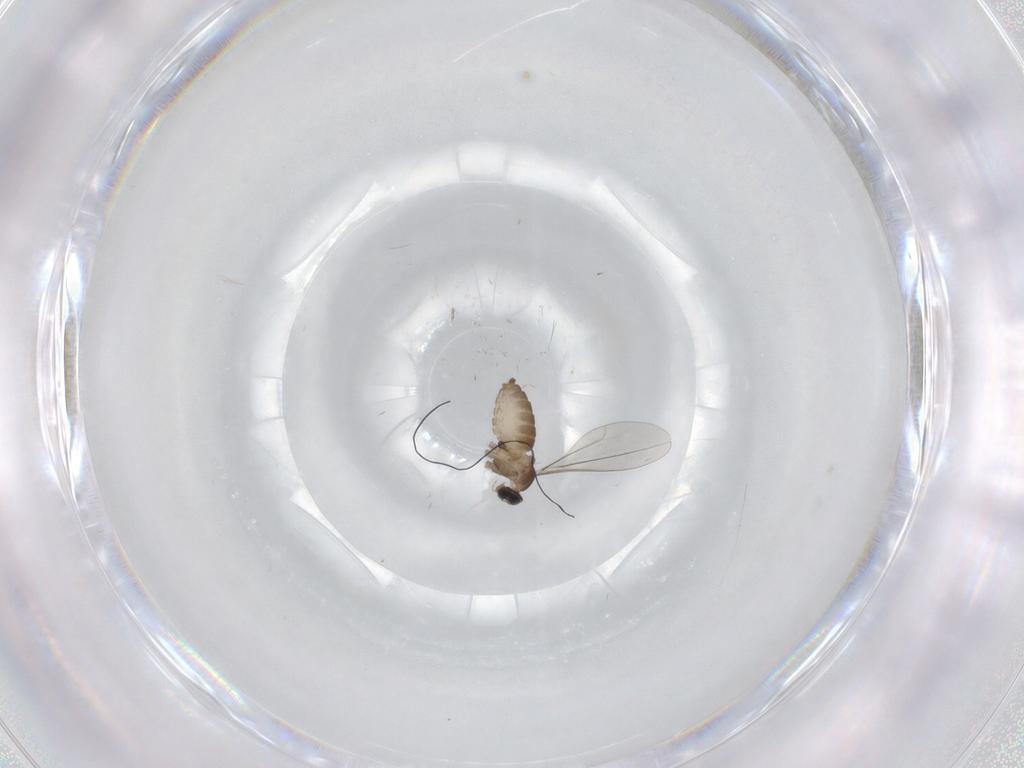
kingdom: Animalia
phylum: Arthropoda
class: Insecta
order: Diptera
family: Cecidomyiidae
